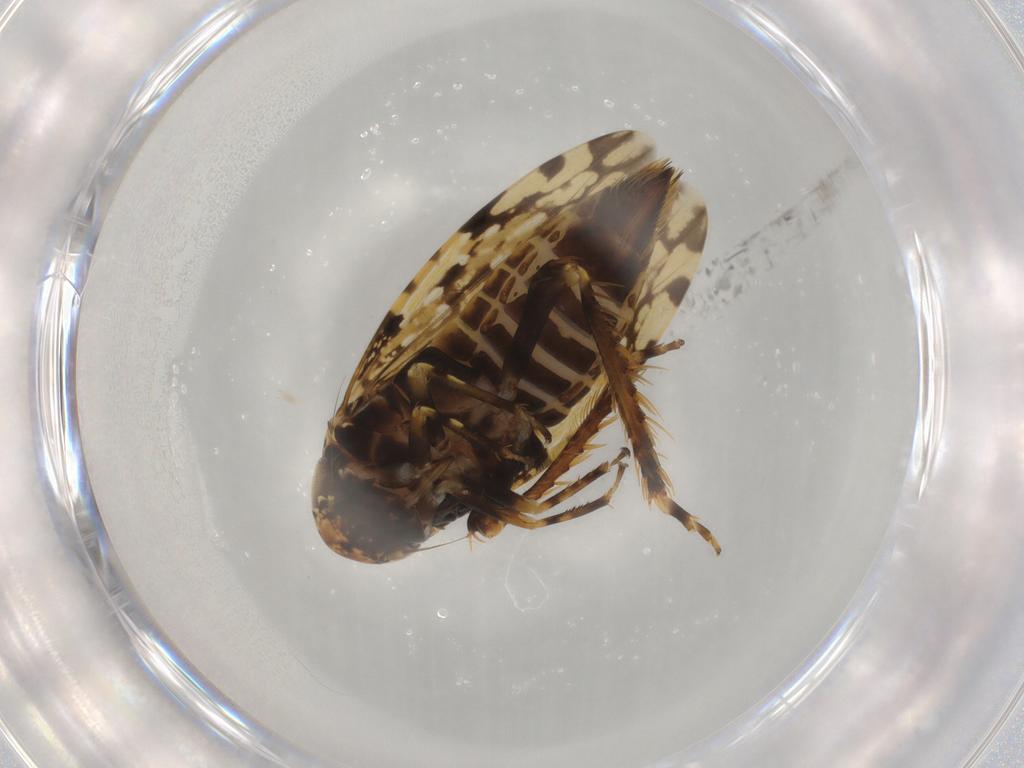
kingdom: Animalia
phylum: Arthropoda
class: Insecta
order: Hemiptera
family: Cicadellidae
